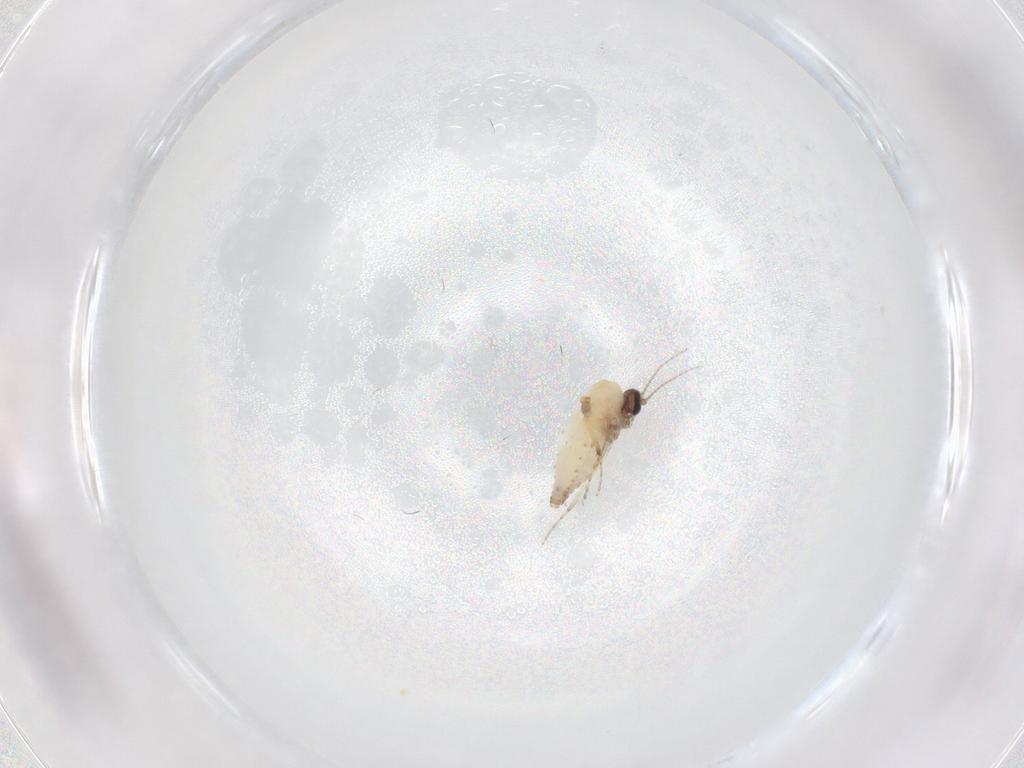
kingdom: Animalia
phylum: Arthropoda
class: Insecta
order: Diptera
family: Ceratopogonidae
